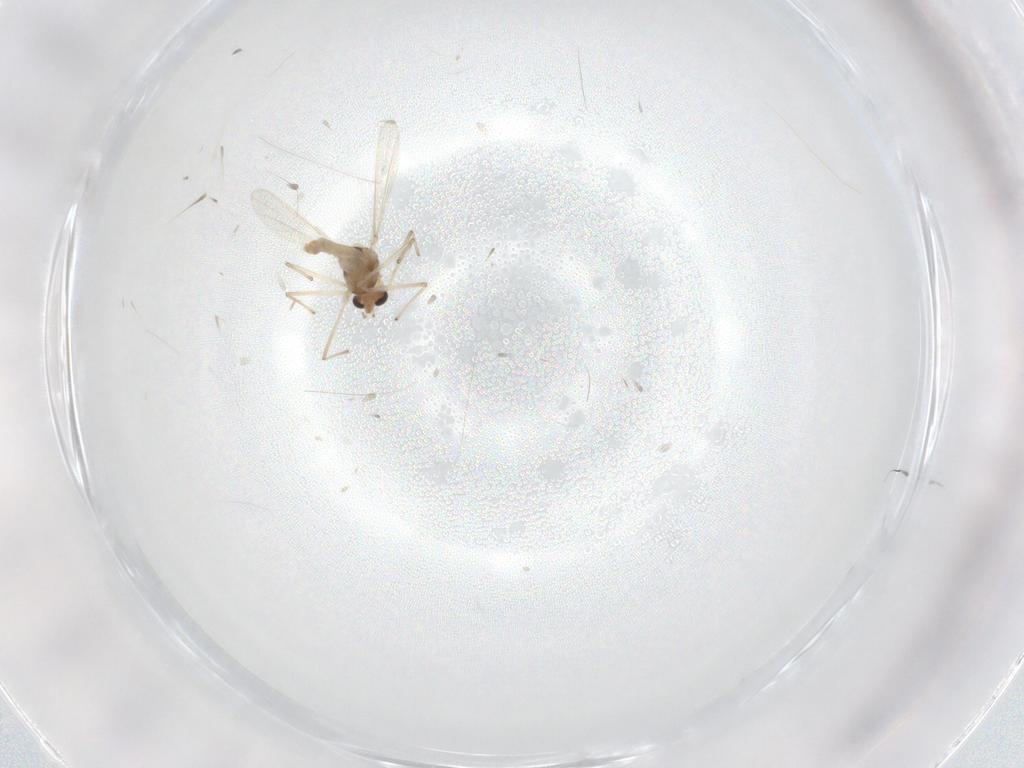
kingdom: Animalia
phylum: Arthropoda
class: Insecta
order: Diptera
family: Chironomidae
